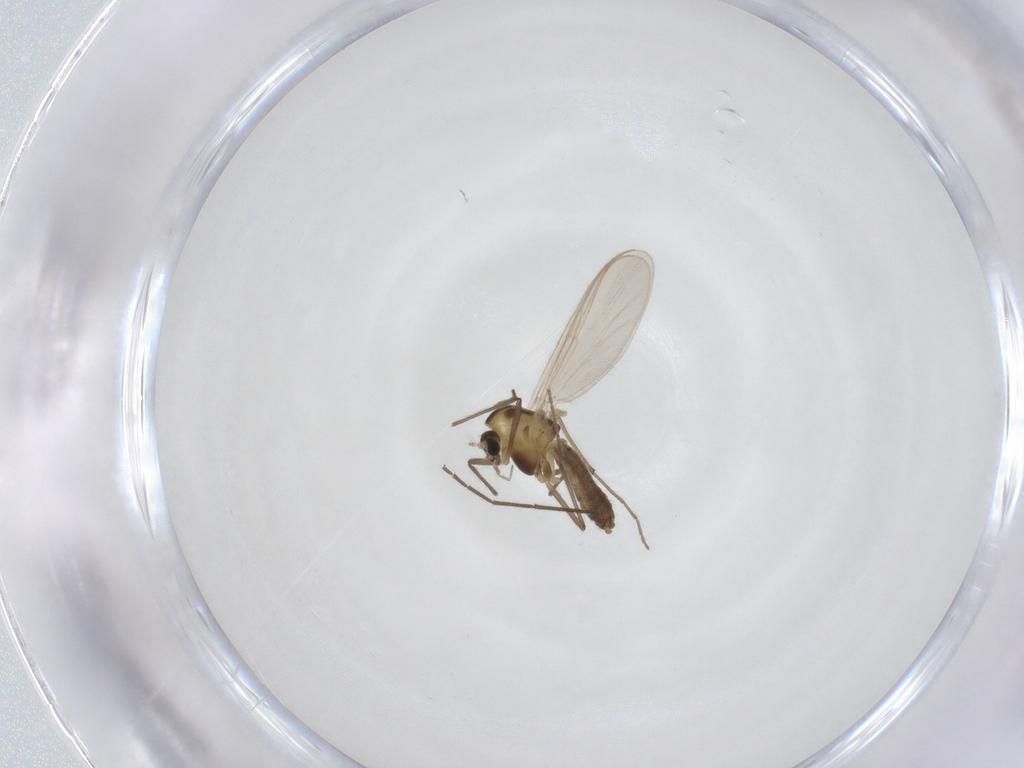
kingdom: Animalia
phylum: Arthropoda
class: Insecta
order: Diptera
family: Chironomidae
